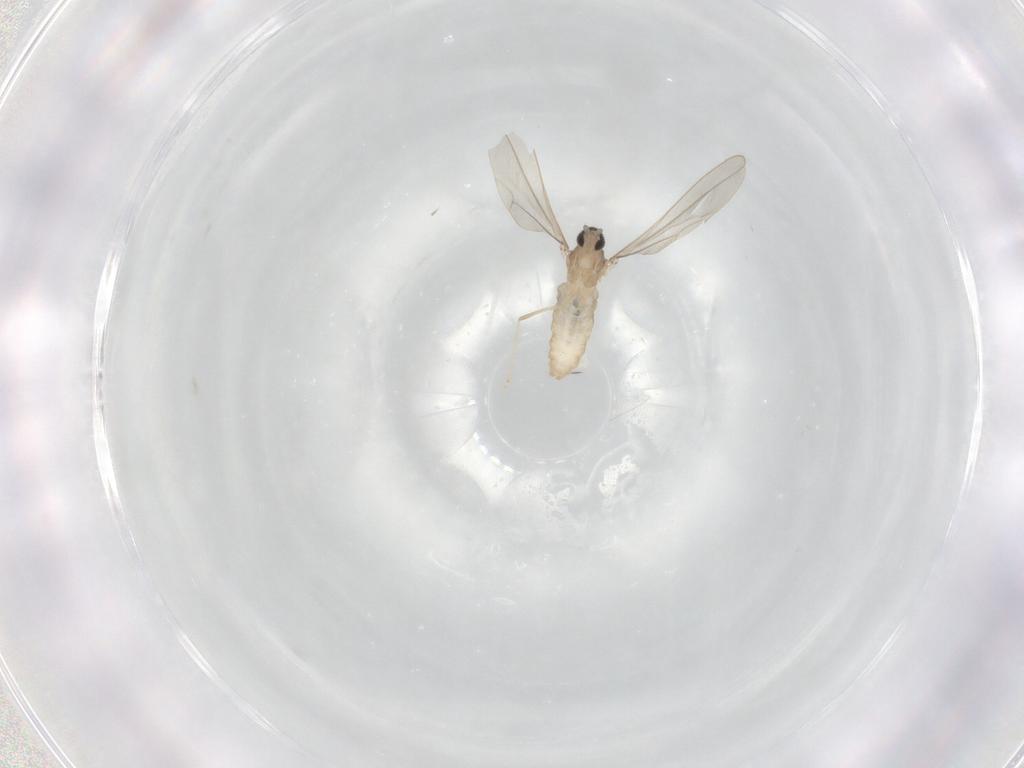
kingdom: Animalia
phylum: Arthropoda
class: Insecta
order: Diptera
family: Cecidomyiidae
